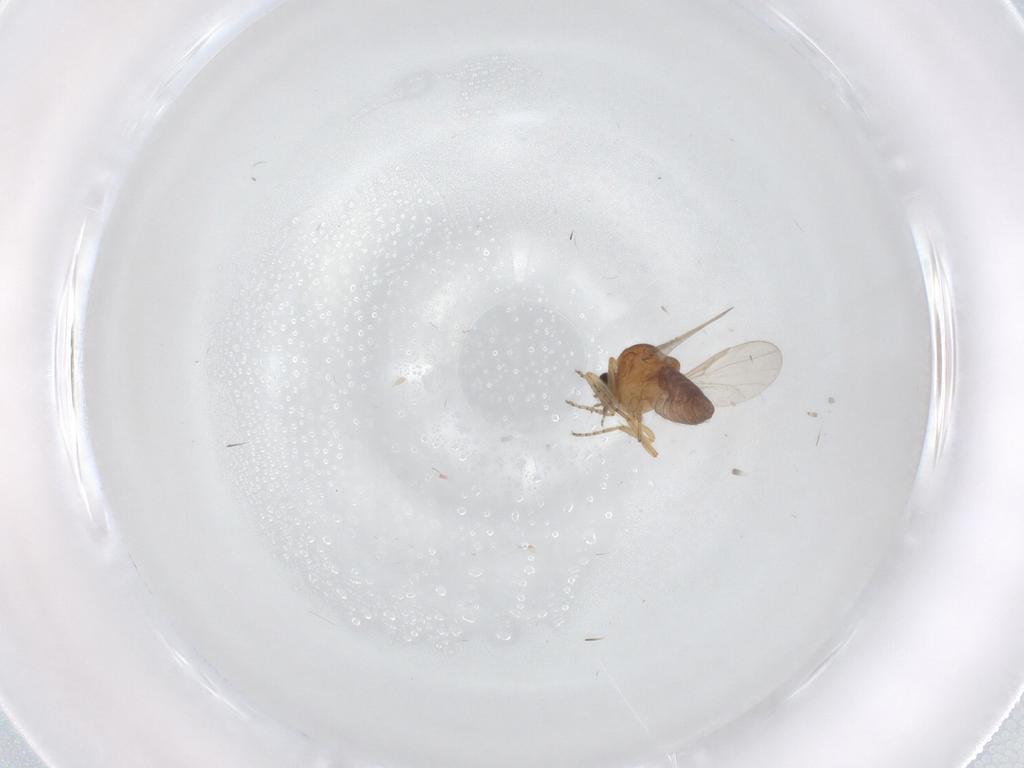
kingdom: Animalia
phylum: Arthropoda
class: Insecta
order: Diptera
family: Ceratopogonidae
